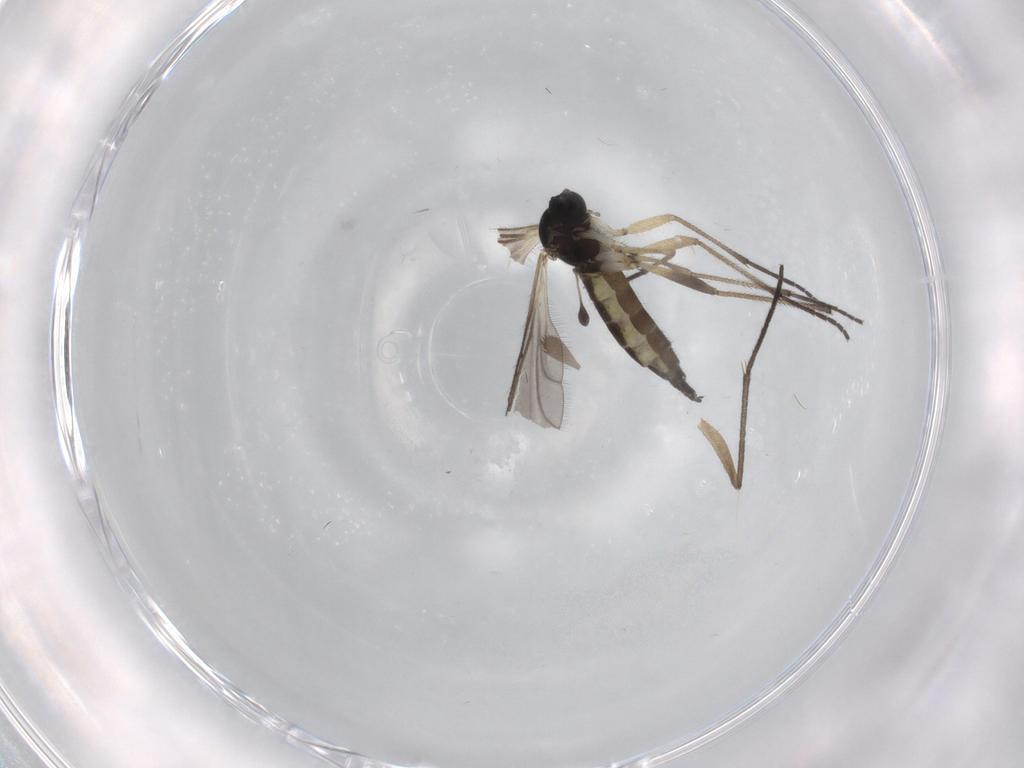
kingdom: Animalia
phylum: Arthropoda
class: Insecta
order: Diptera
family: Sciaridae
